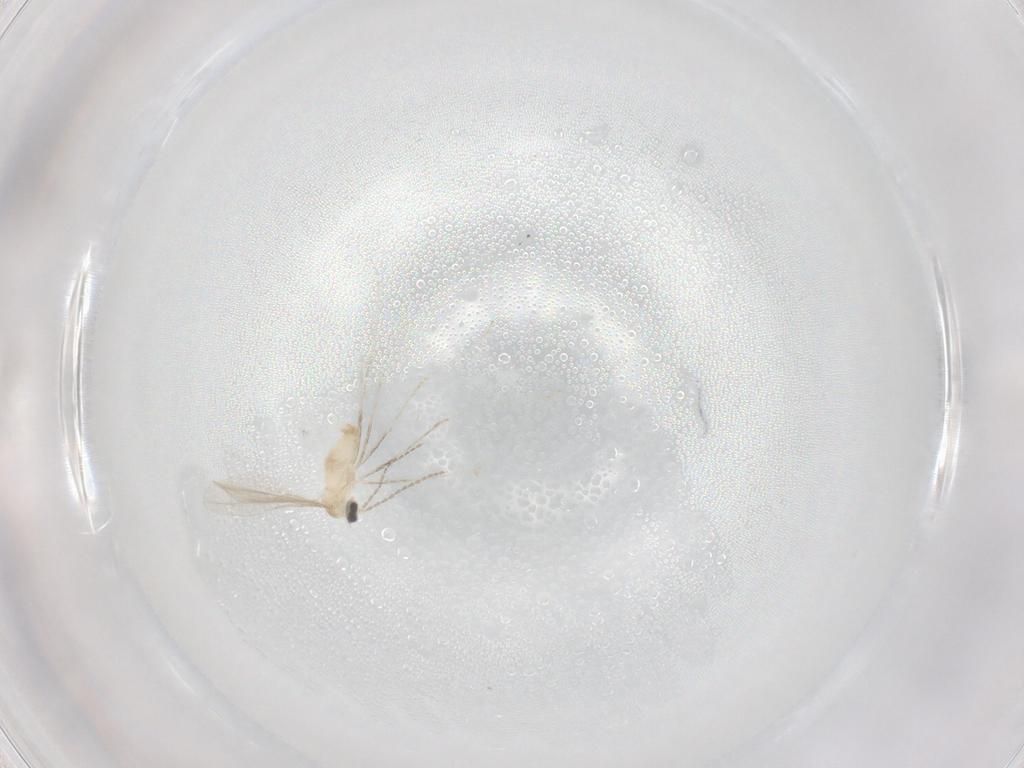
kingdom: Animalia
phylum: Arthropoda
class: Insecta
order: Diptera
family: Cecidomyiidae
